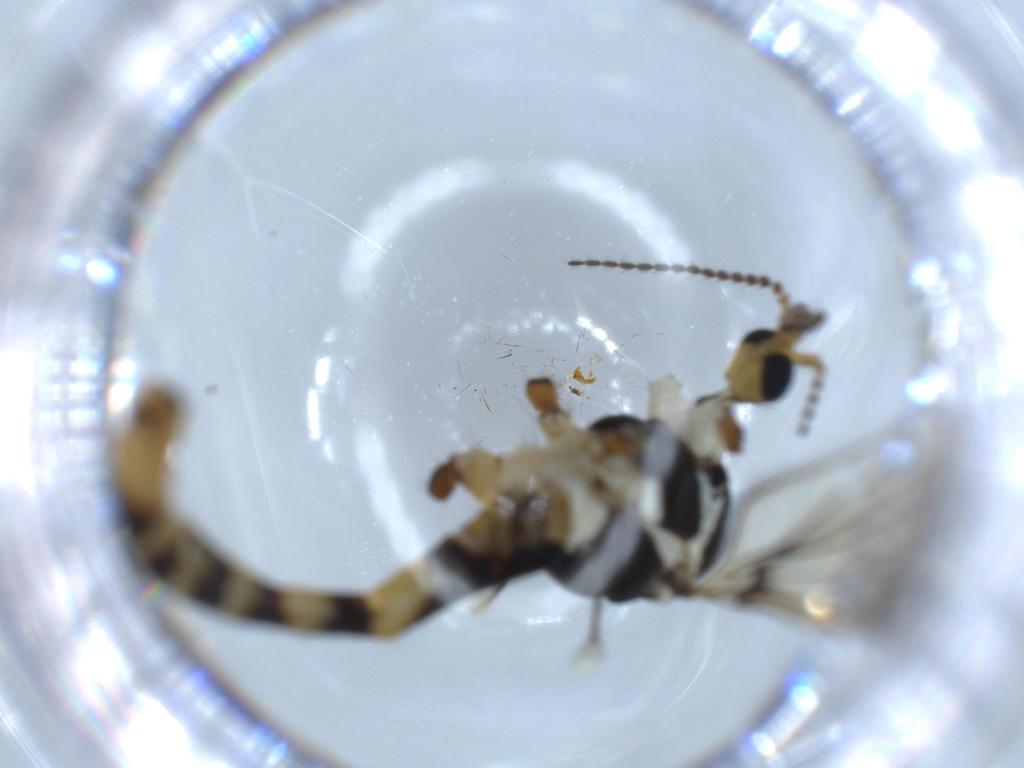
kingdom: Animalia
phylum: Arthropoda
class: Insecta
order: Diptera
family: Limoniidae
